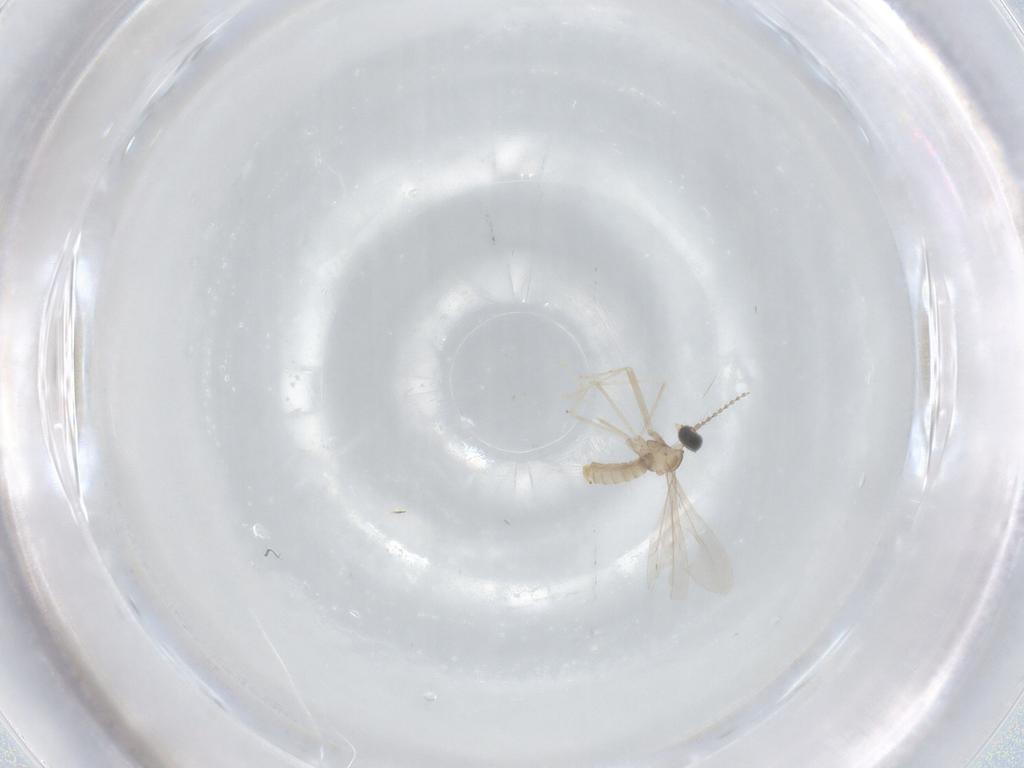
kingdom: Animalia
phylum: Arthropoda
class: Insecta
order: Diptera
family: Cecidomyiidae
